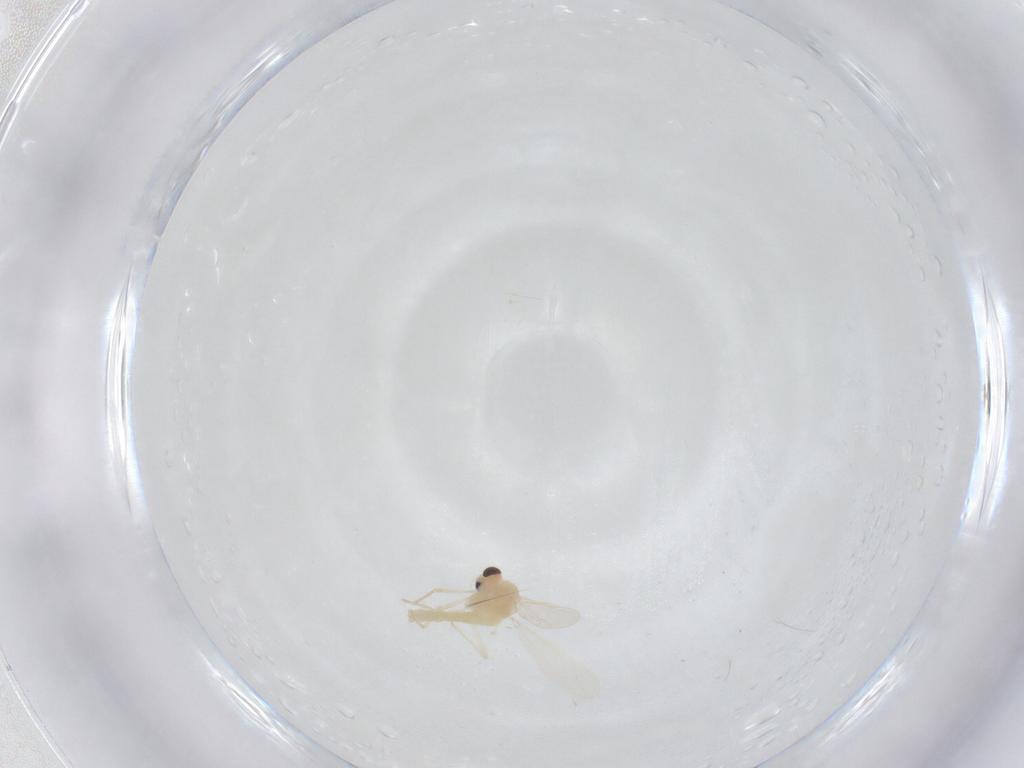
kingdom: Animalia
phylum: Arthropoda
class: Insecta
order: Diptera
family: Chironomidae
